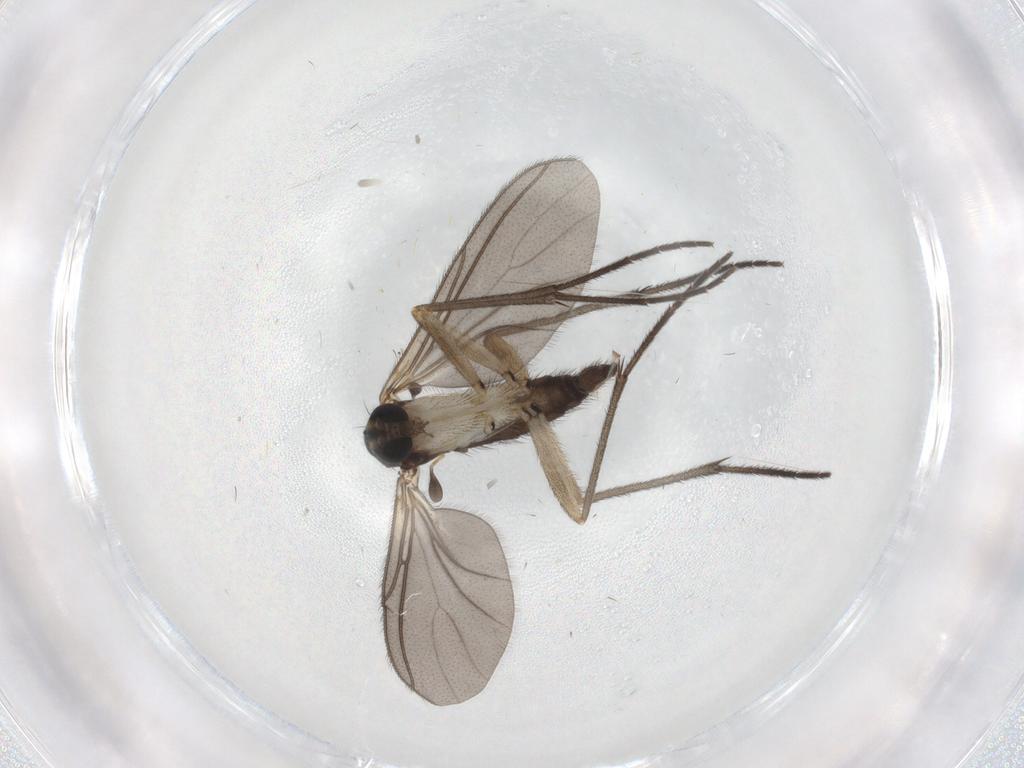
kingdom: Animalia
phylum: Arthropoda
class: Insecta
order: Diptera
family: Sciaridae
